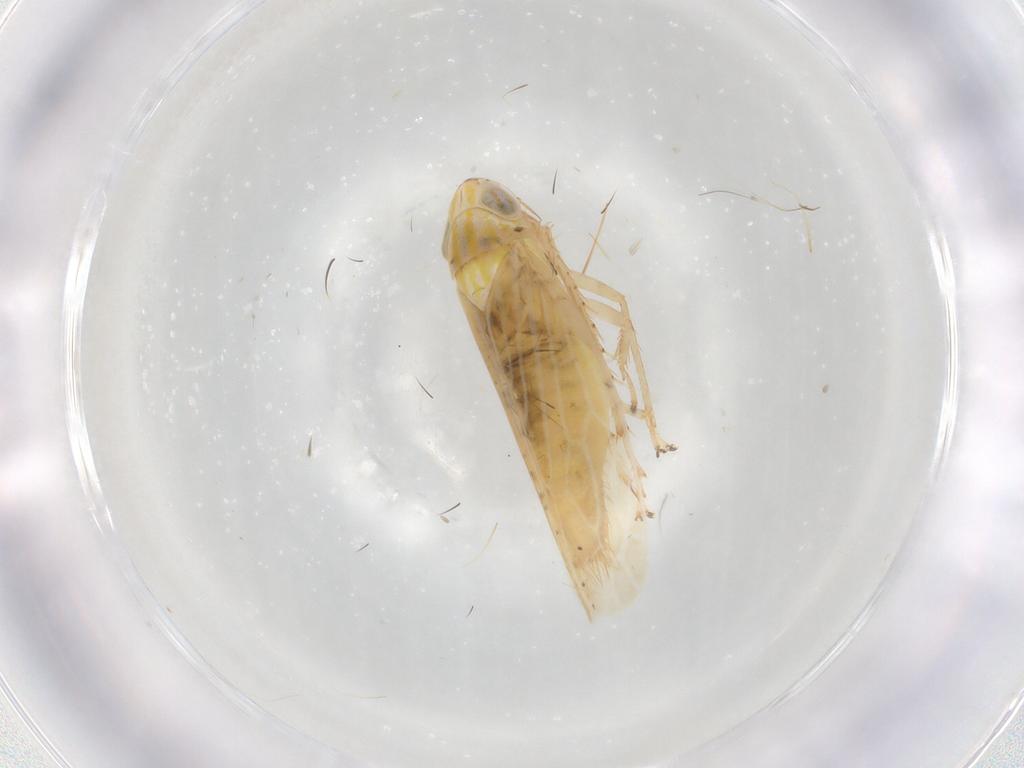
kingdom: Animalia
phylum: Arthropoda
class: Insecta
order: Hemiptera
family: Cicadellidae
